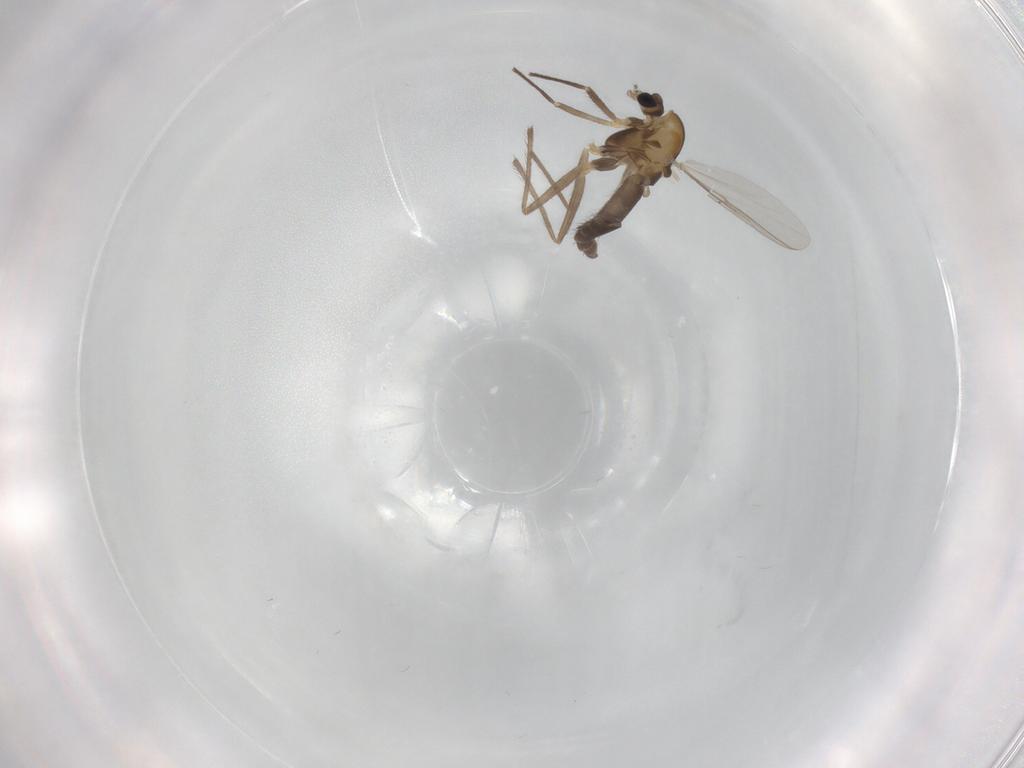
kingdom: Animalia
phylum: Arthropoda
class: Insecta
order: Diptera
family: Chironomidae
